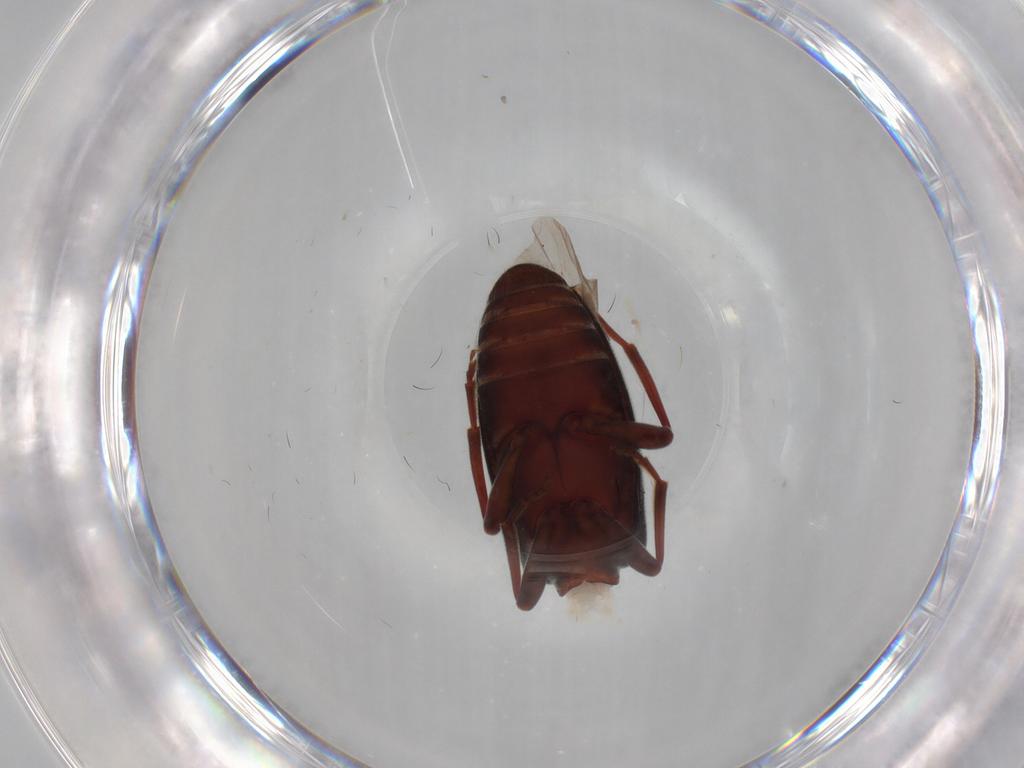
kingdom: Animalia
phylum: Arthropoda
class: Insecta
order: Coleoptera
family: Anthicidae
